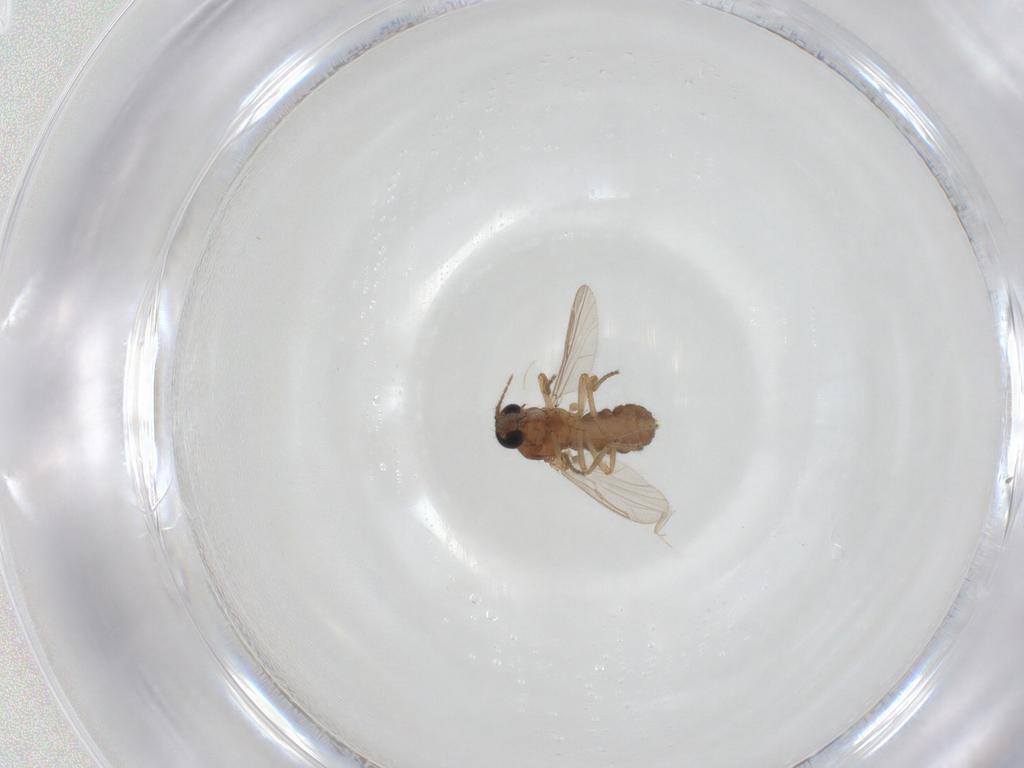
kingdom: Animalia
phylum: Arthropoda
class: Insecta
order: Diptera
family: Ceratopogonidae
